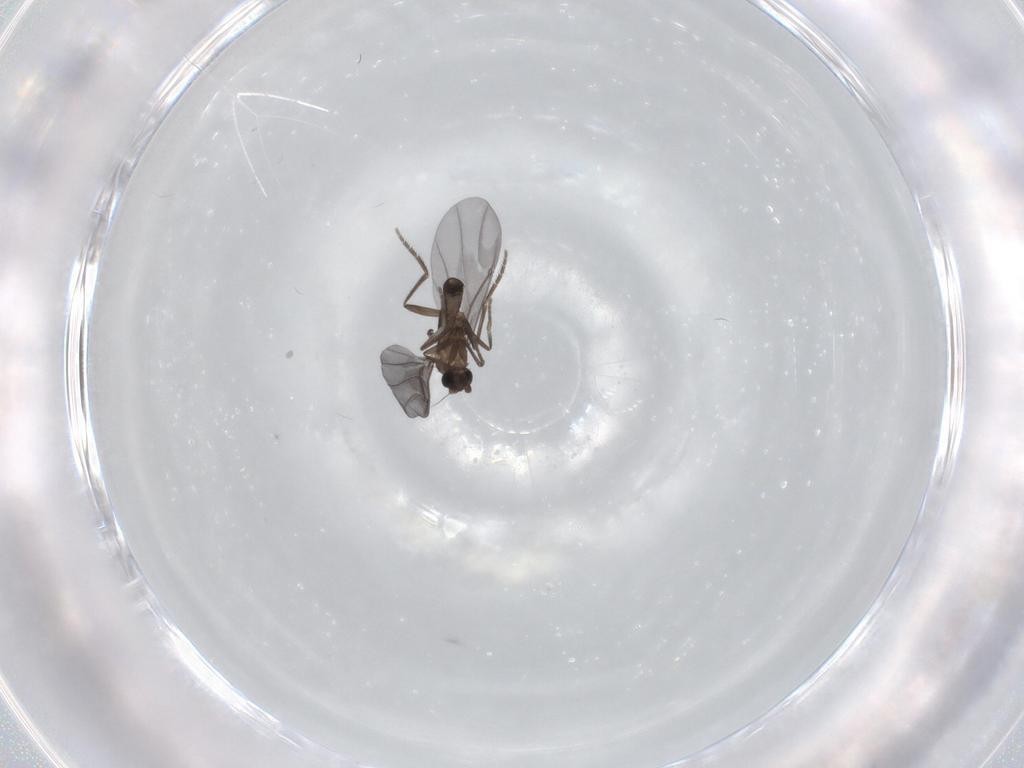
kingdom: Animalia
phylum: Arthropoda
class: Insecta
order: Diptera
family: Phoridae
